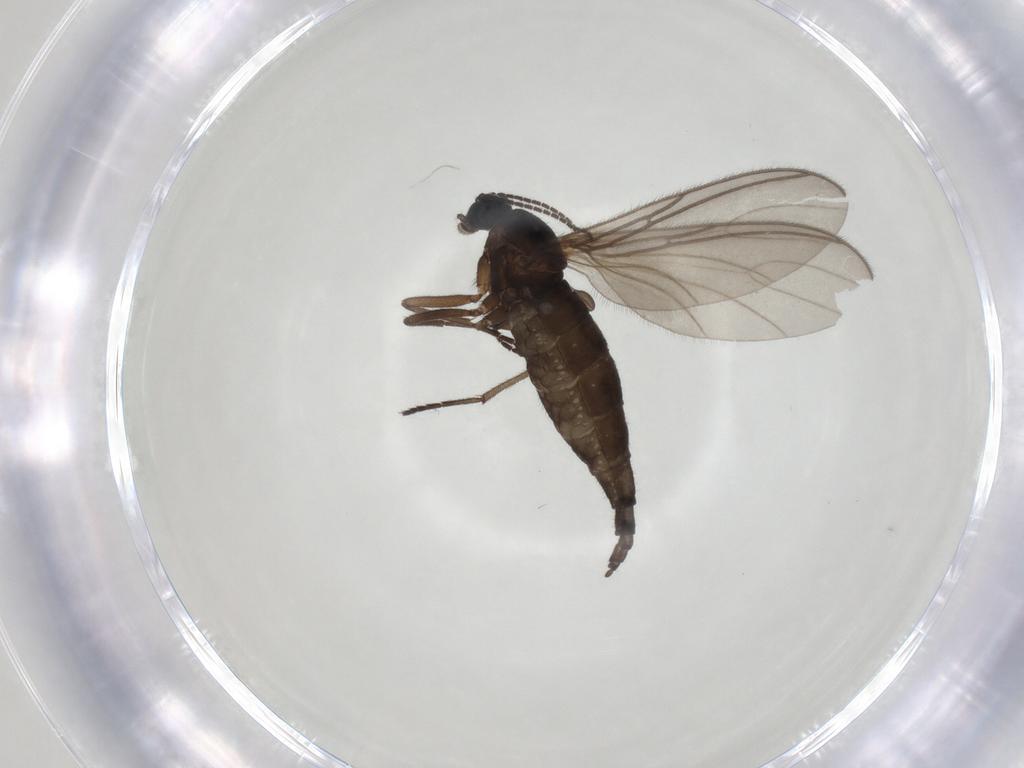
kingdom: Animalia
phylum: Arthropoda
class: Insecta
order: Diptera
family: Sciaridae
